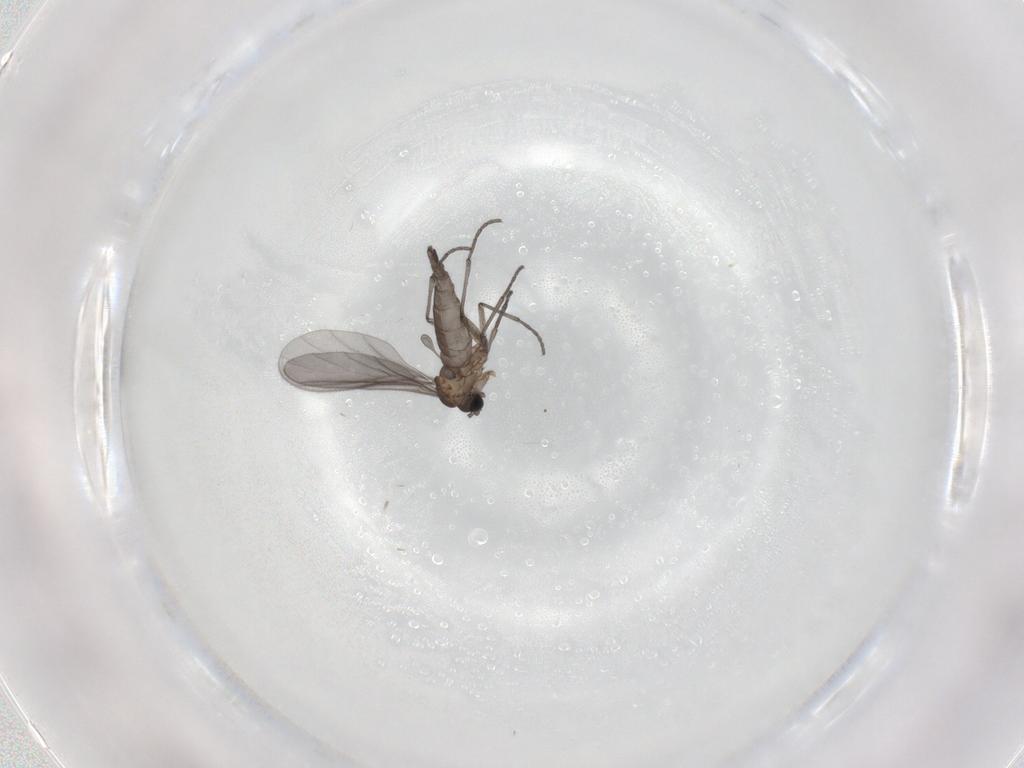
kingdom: Animalia
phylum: Arthropoda
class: Insecta
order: Diptera
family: Sciaridae
